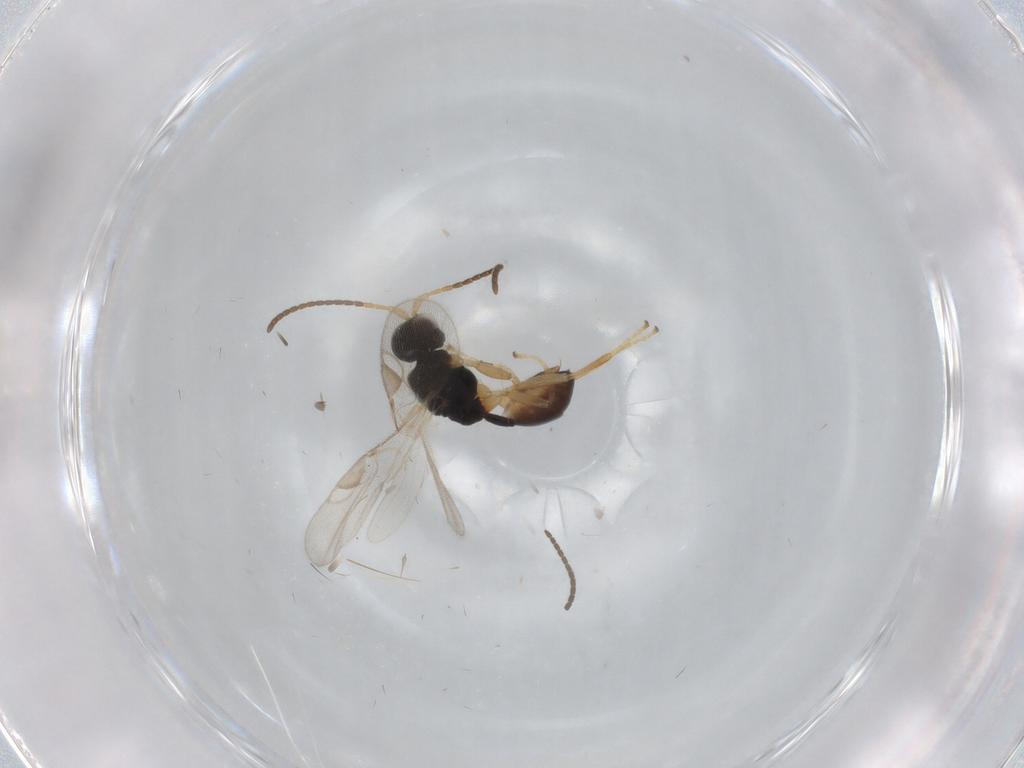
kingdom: Animalia
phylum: Arthropoda
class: Insecta
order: Hymenoptera
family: Braconidae
